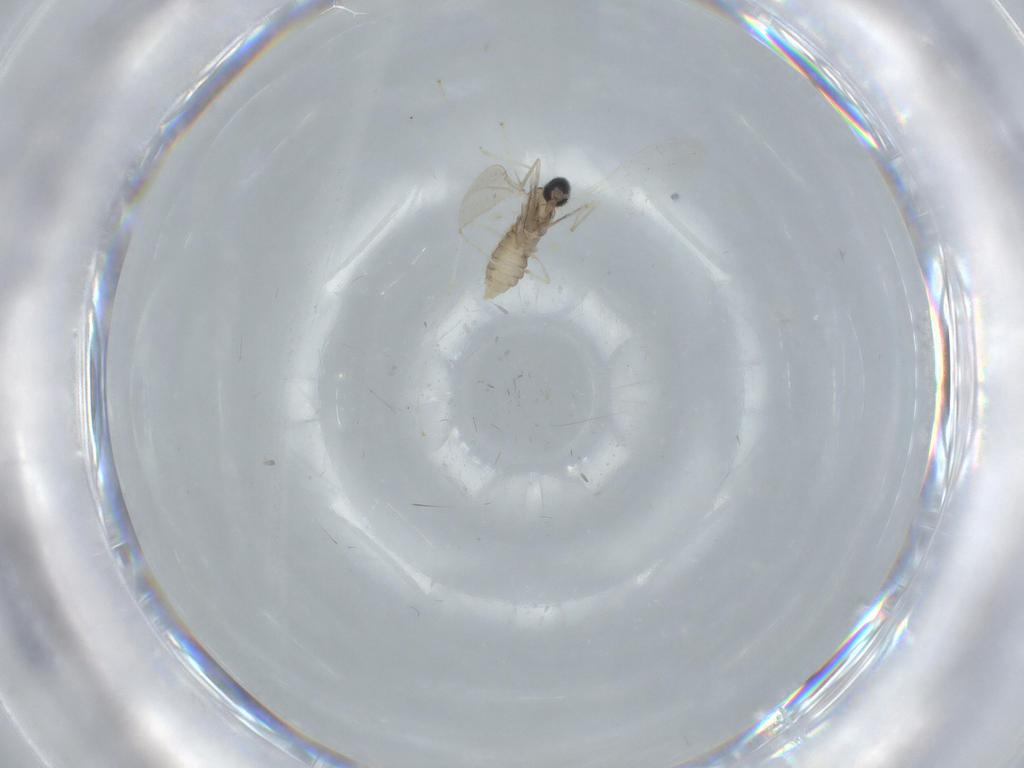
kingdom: Animalia
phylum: Arthropoda
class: Insecta
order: Diptera
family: Cecidomyiidae
